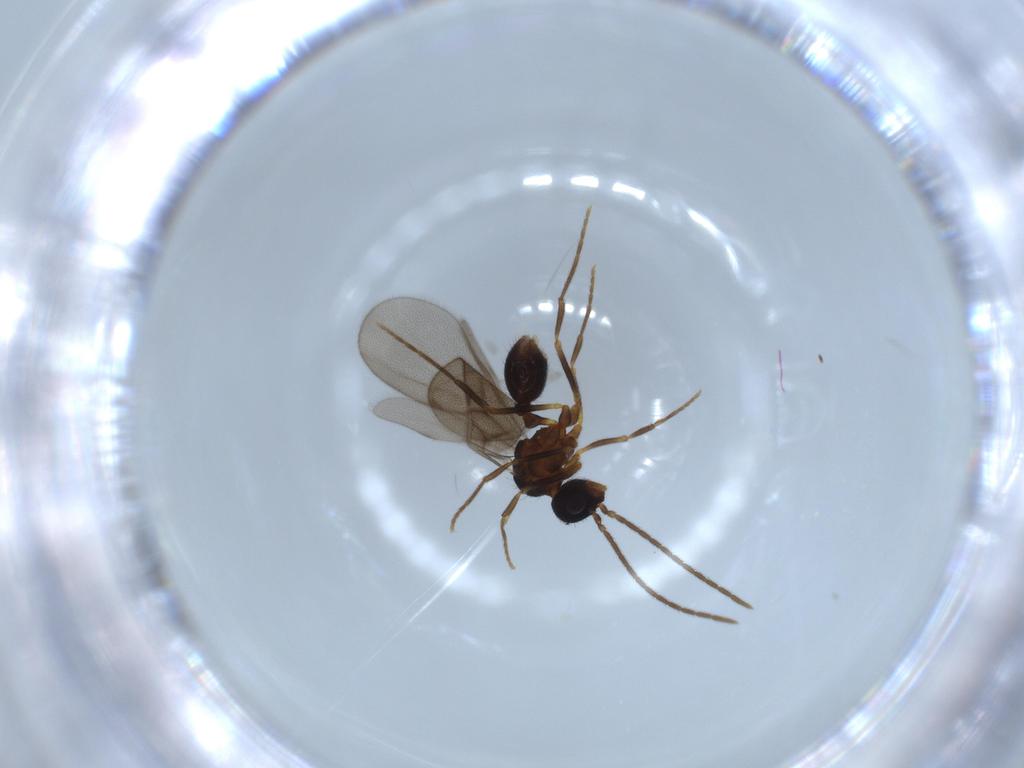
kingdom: Animalia
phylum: Arthropoda
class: Insecta
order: Hymenoptera
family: Formicidae
